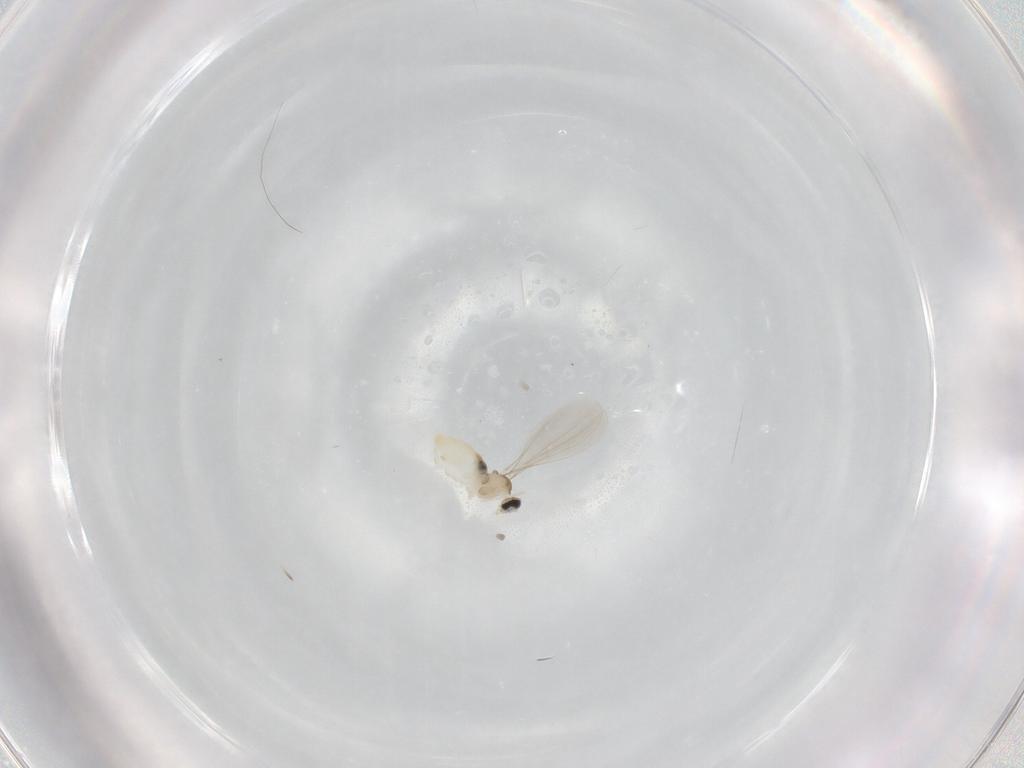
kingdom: Animalia
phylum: Arthropoda
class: Insecta
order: Diptera
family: Cecidomyiidae
